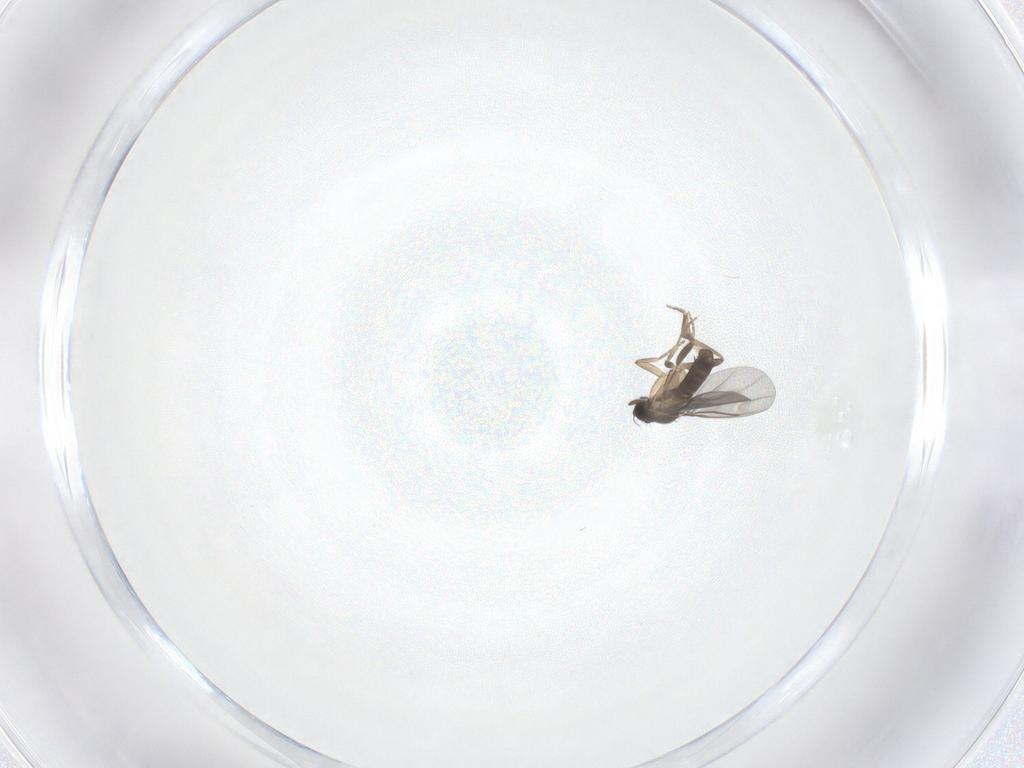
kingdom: Animalia
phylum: Arthropoda
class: Insecta
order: Diptera
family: Phoridae
